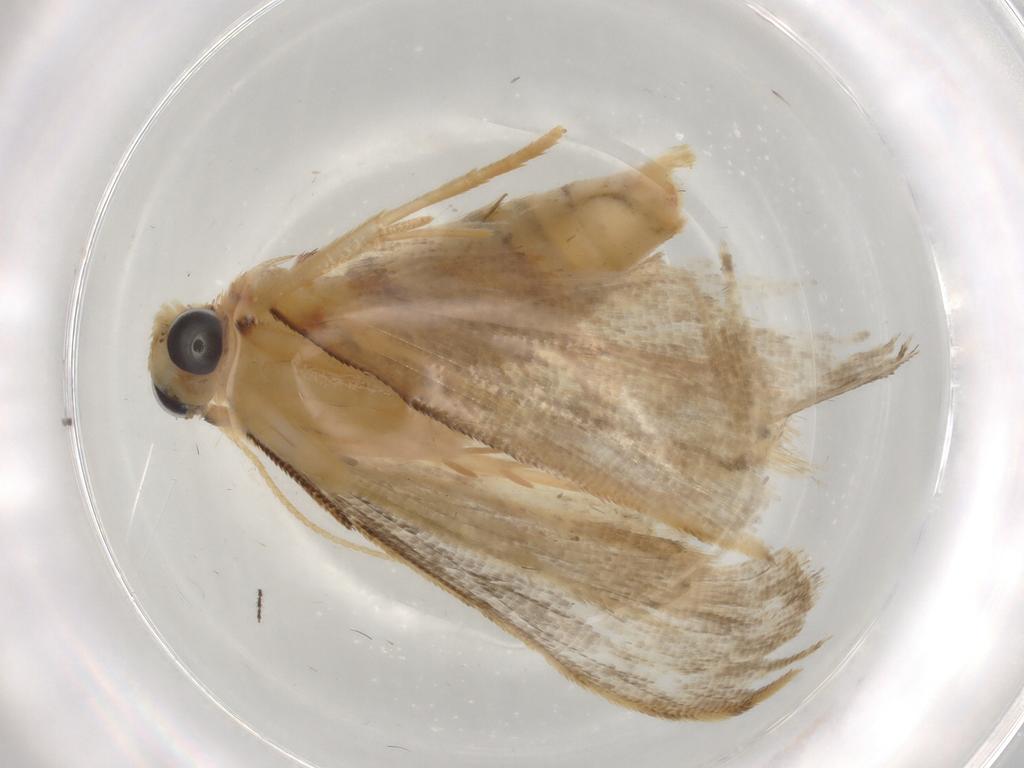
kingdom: Animalia
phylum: Arthropoda
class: Insecta
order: Lepidoptera
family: Erebidae
